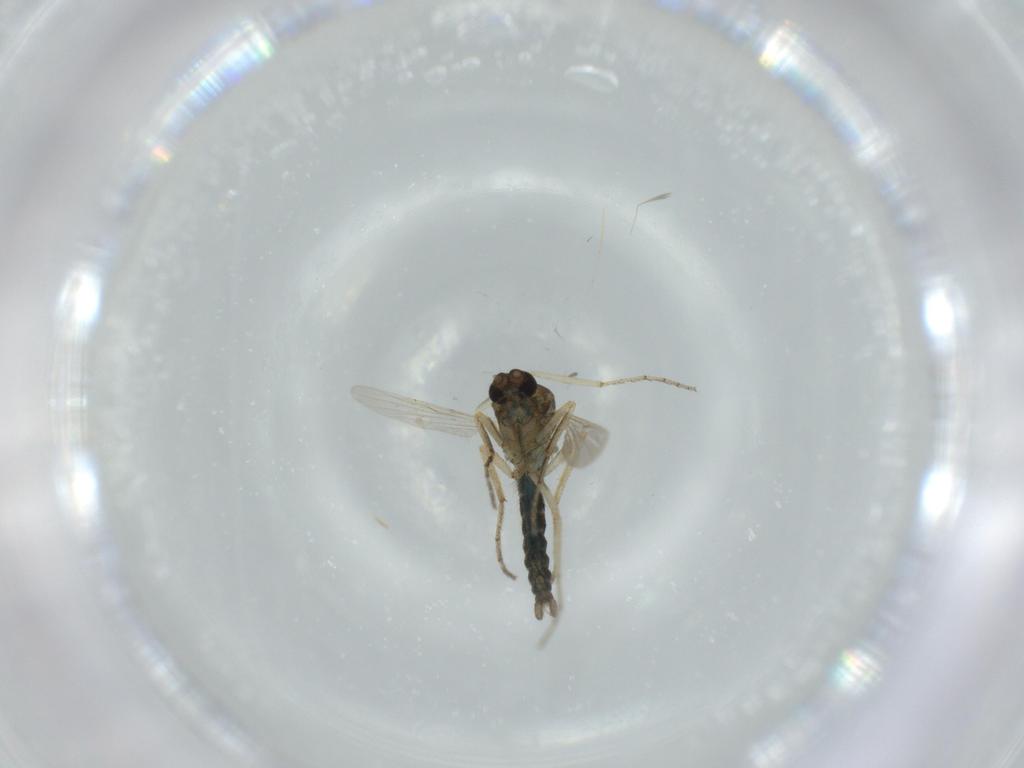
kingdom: Animalia
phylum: Arthropoda
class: Insecta
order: Diptera
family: Ceratopogonidae
